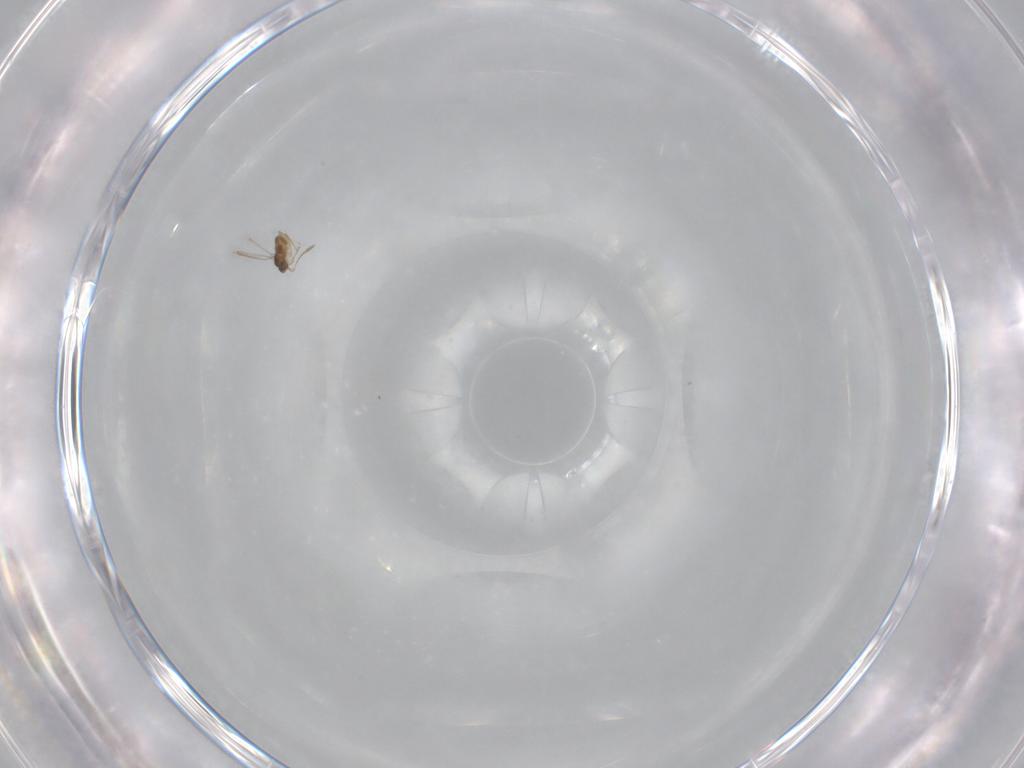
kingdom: Animalia
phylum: Arthropoda
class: Insecta
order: Hymenoptera
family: Mymaridae
